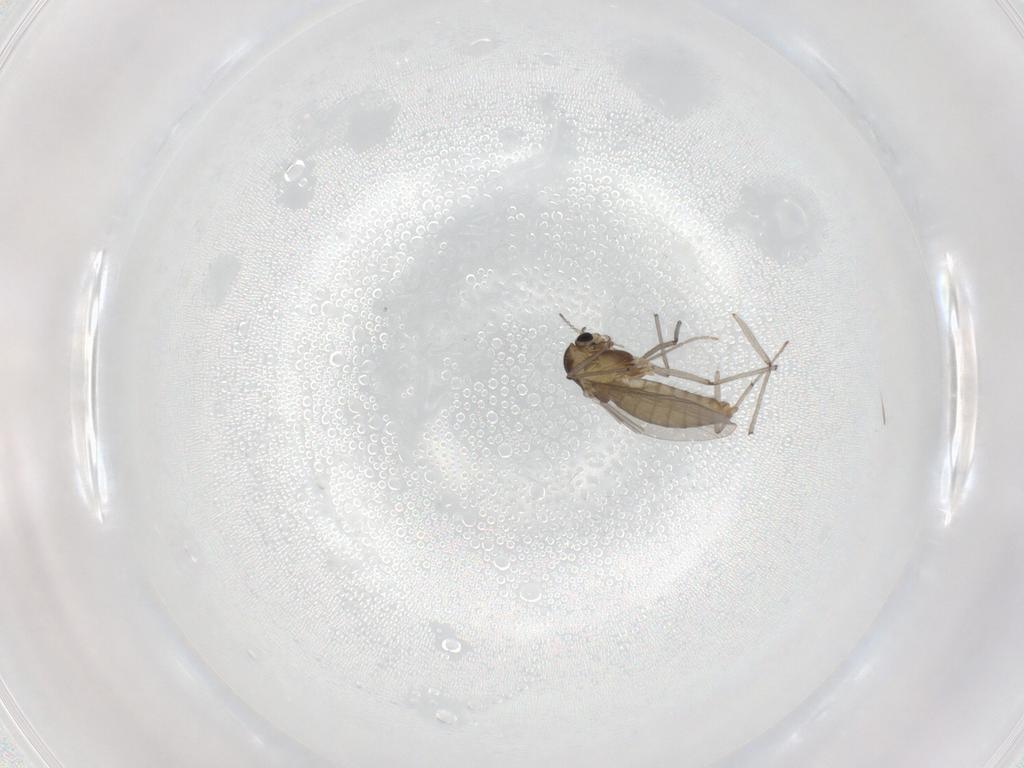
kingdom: Animalia
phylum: Arthropoda
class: Insecta
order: Diptera
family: Chironomidae
